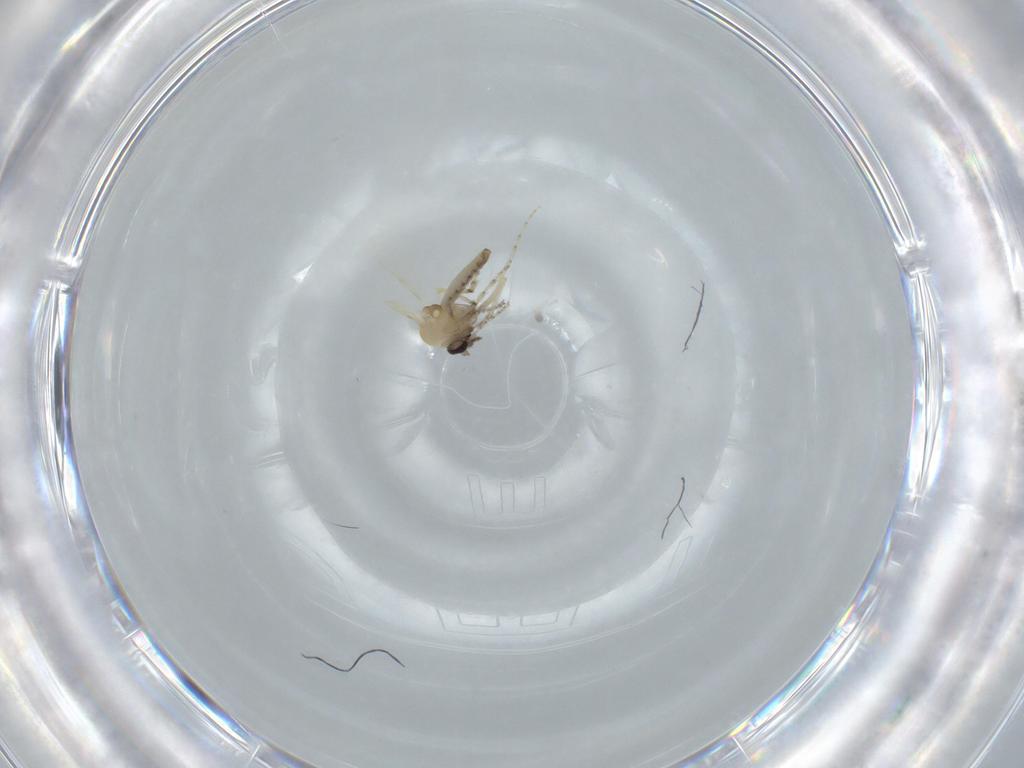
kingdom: Animalia
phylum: Arthropoda
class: Insecta
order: Diptera
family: Ceratopogonidae
